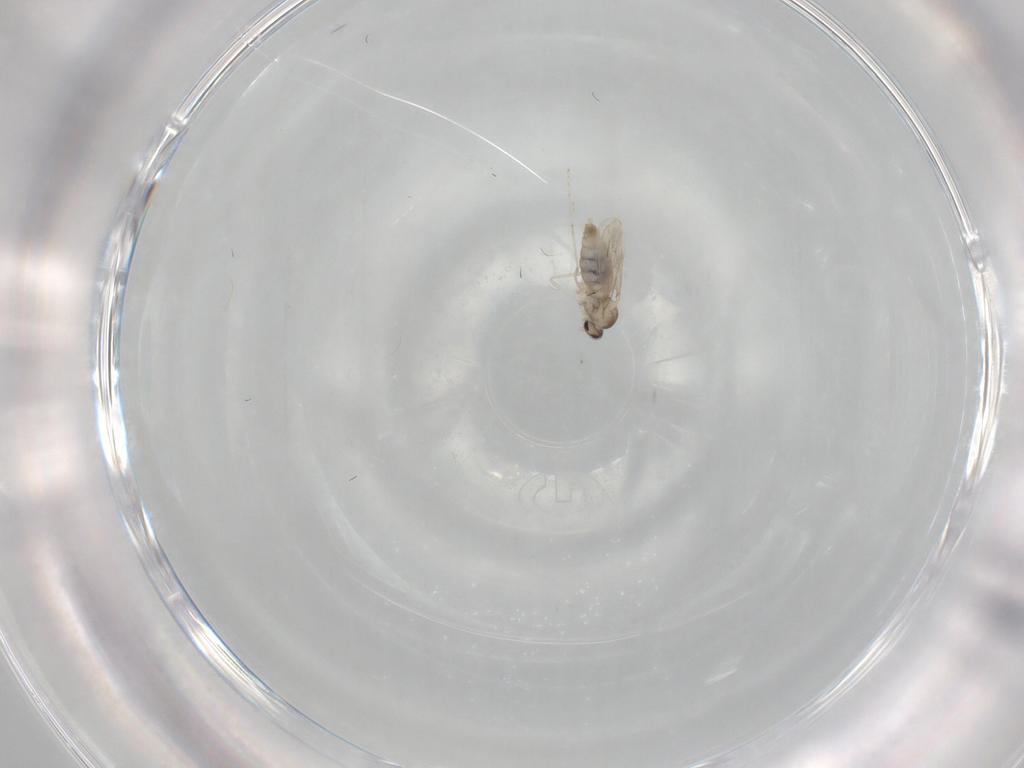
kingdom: Animalia
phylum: Arthropoda
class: Insecta
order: Diptera
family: Cecidomyiidae
